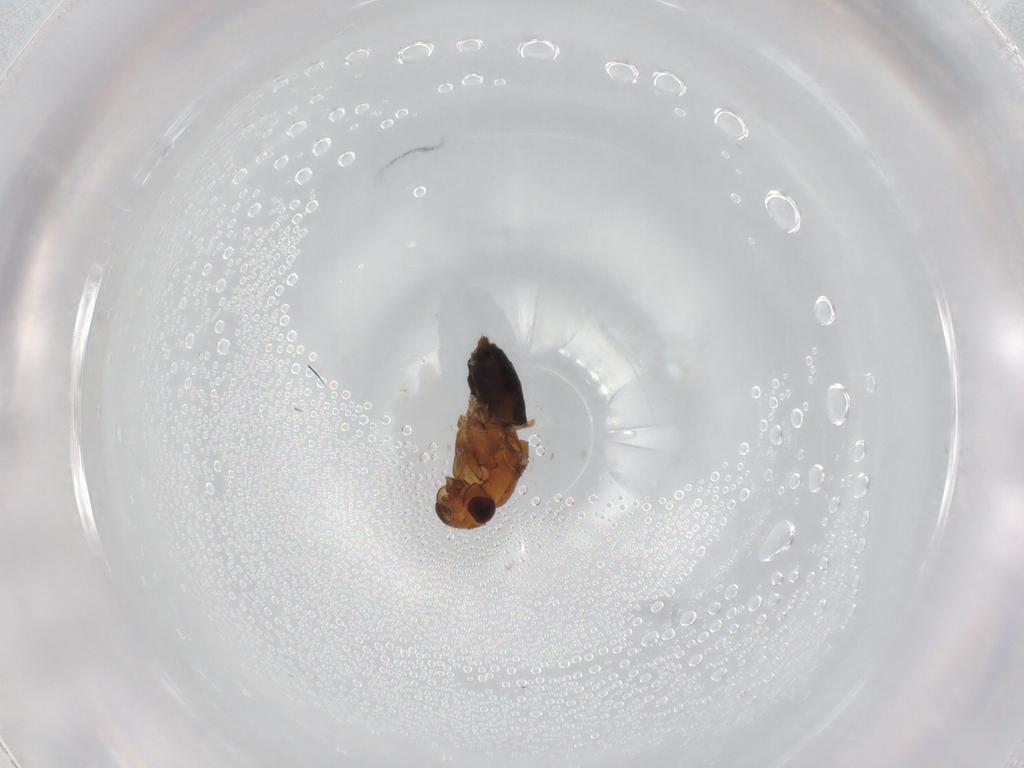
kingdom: Animalia
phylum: Arthropoda
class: Insecta
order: Diptera
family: Sphaeroceridae
